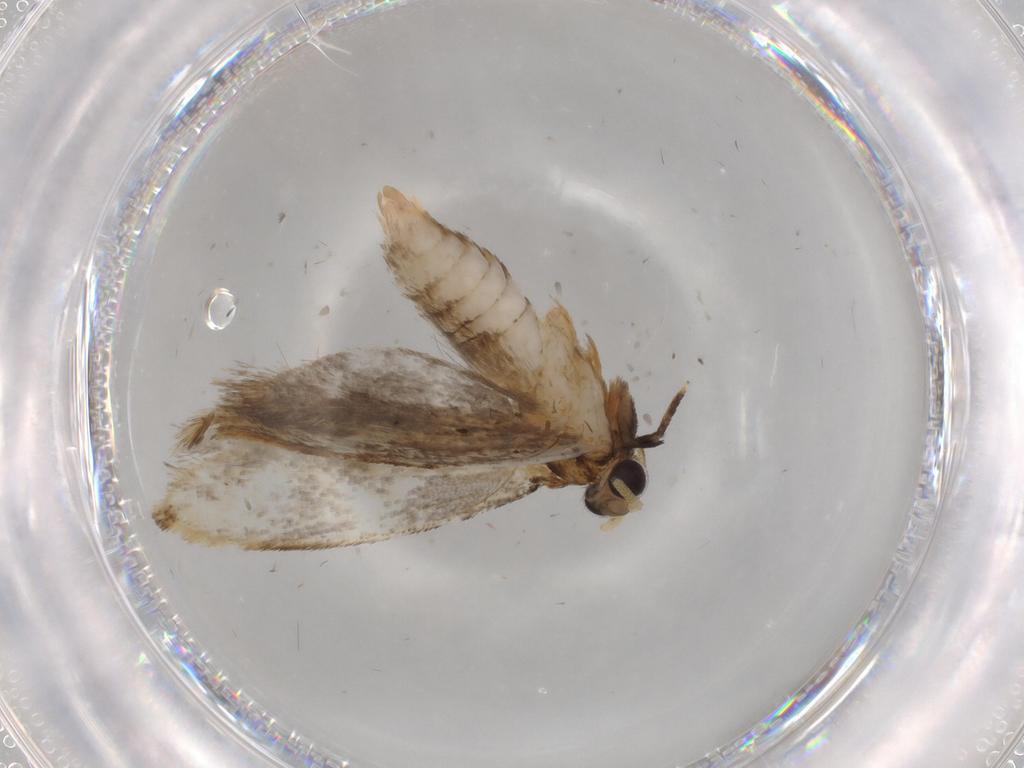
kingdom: Animalia
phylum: Arthropoda
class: Insecta
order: Lepidoptera
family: Tineidae
